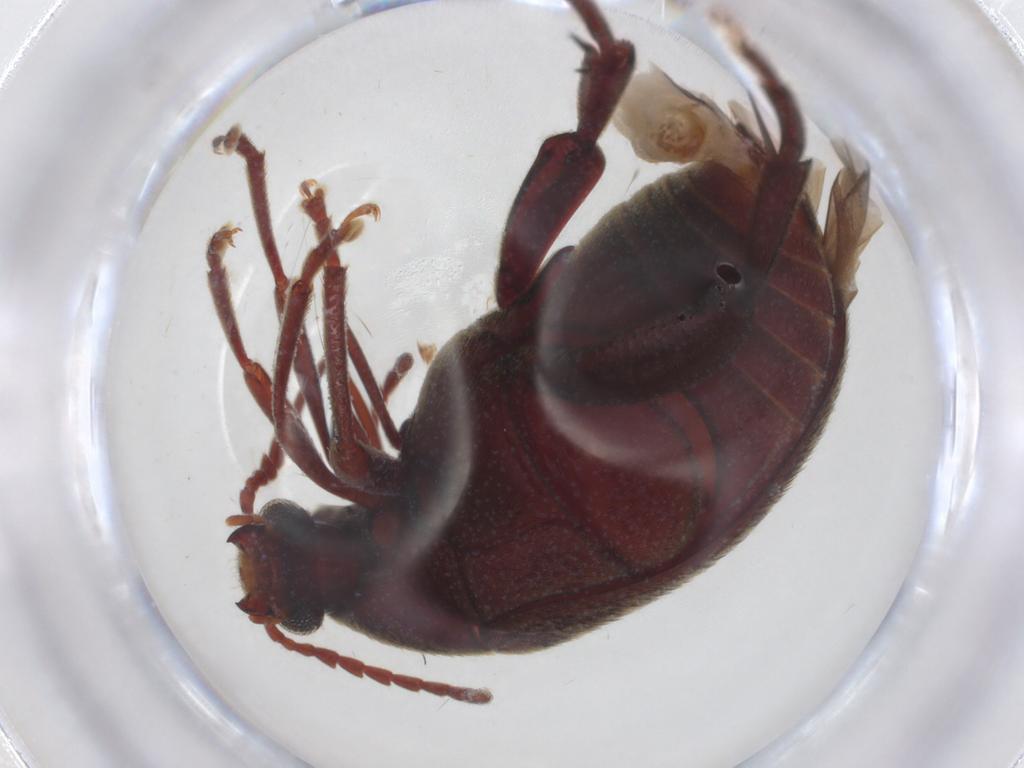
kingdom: Animalia
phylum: Arthropoda
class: Insecta
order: Coleoptera
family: Chrysomelidae
